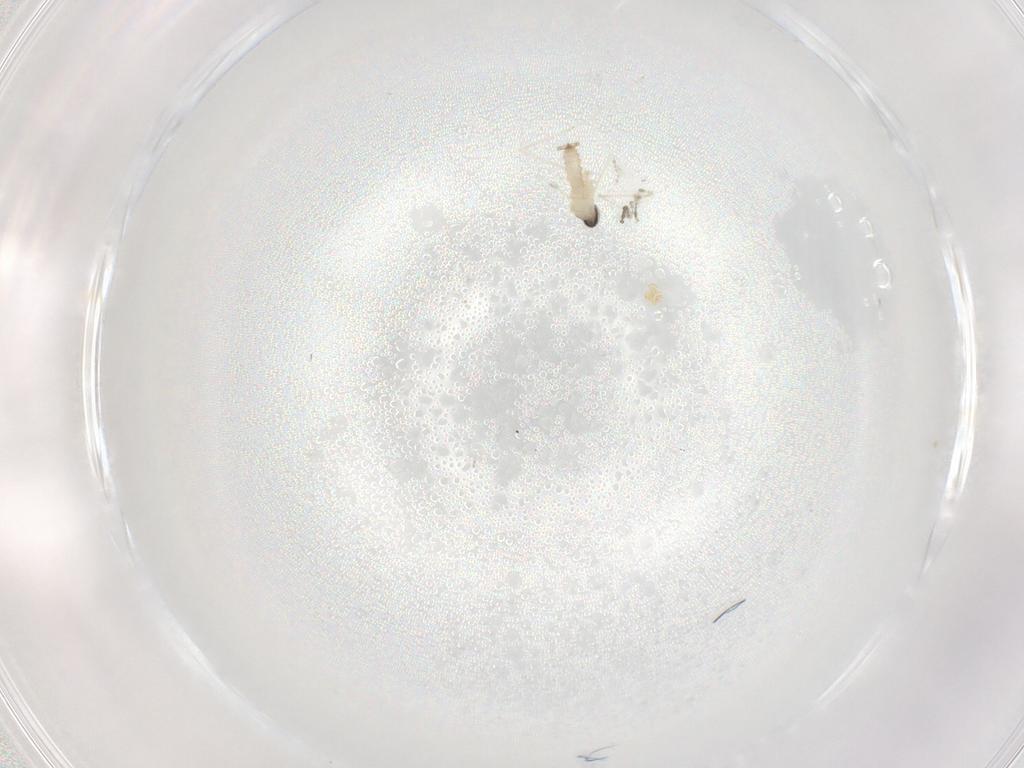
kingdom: Animalia
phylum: Arthropoda
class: Insecta
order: Diptera
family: Cecidomyiidae
